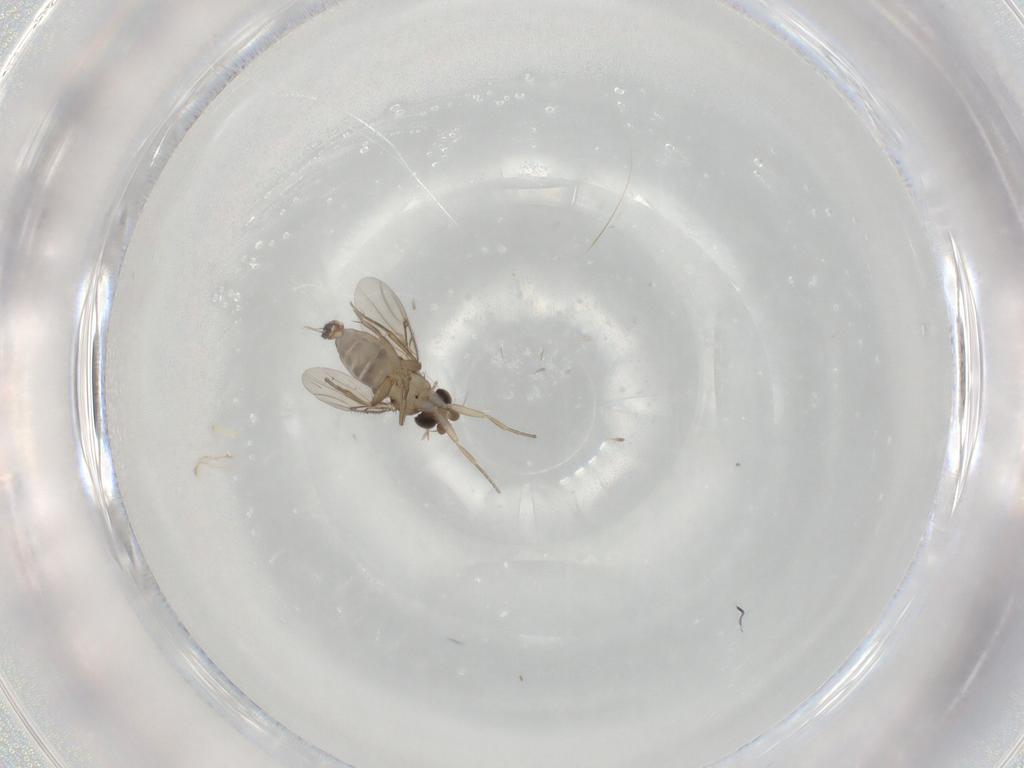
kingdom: Animalia
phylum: Arthropoda
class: Insecta
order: Diptera
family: Phoridae
